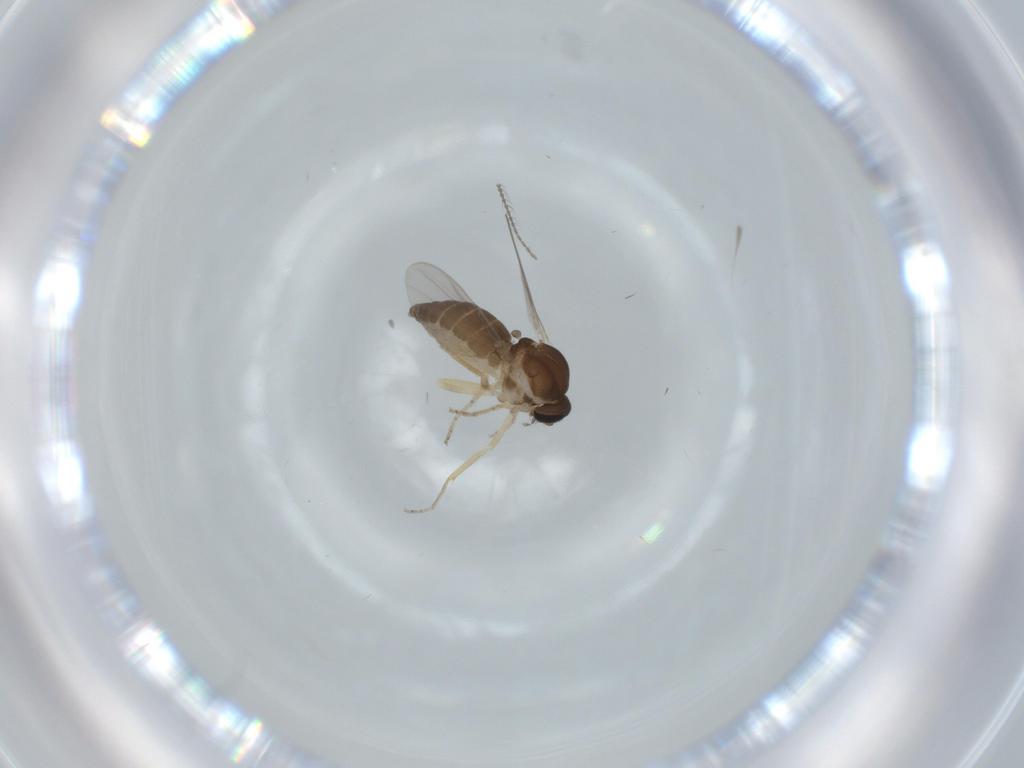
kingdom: Animalia
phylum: Arthropoda
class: Insecta
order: Diptera
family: Ceratopogonidae
